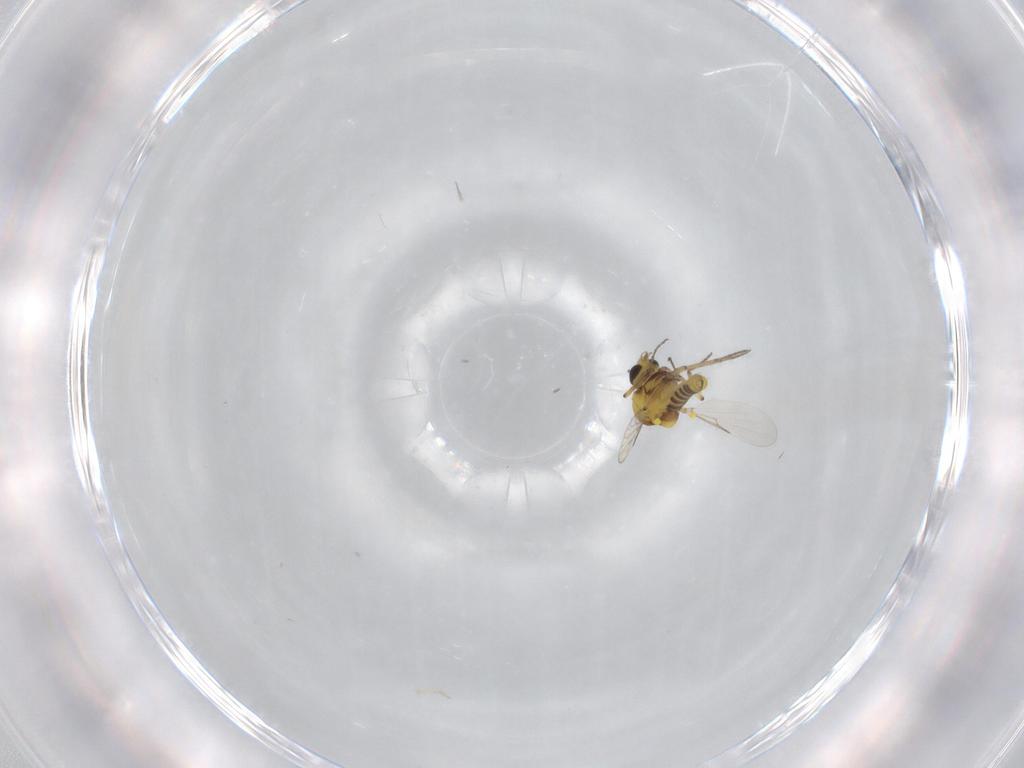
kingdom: Animalia
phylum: Arthropoda
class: Insecta
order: Diptera
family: Ceratopogonidae
